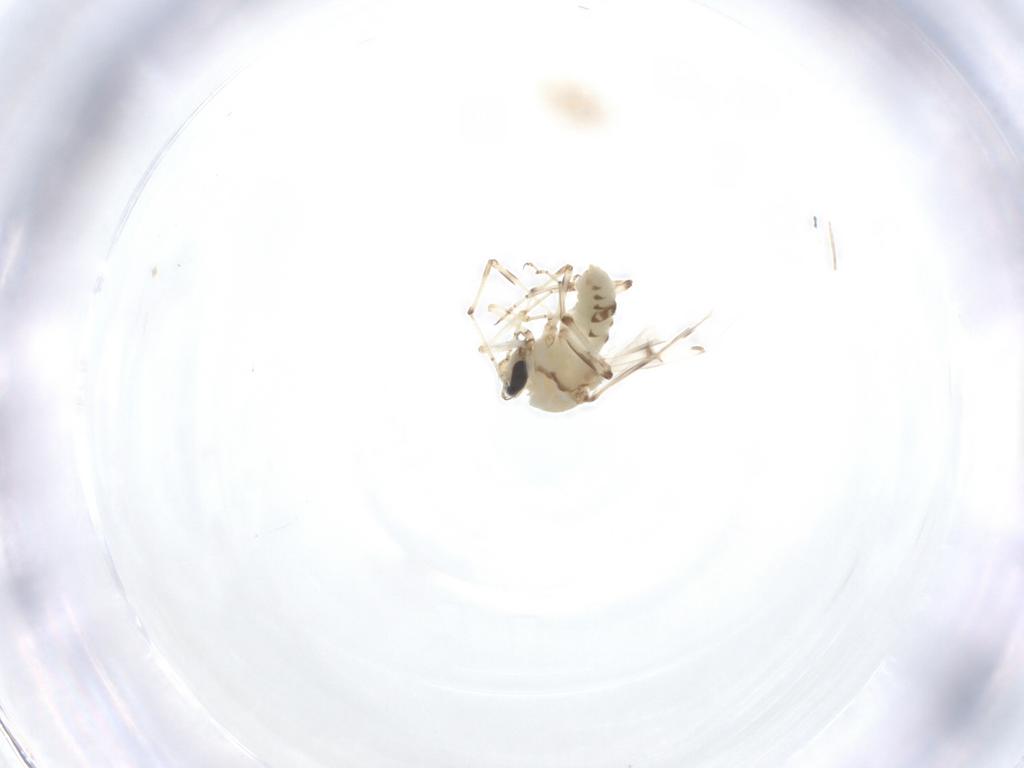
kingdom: Animalia
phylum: Arthropoda
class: Insecta
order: Diptera
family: Ceratopogonidae
